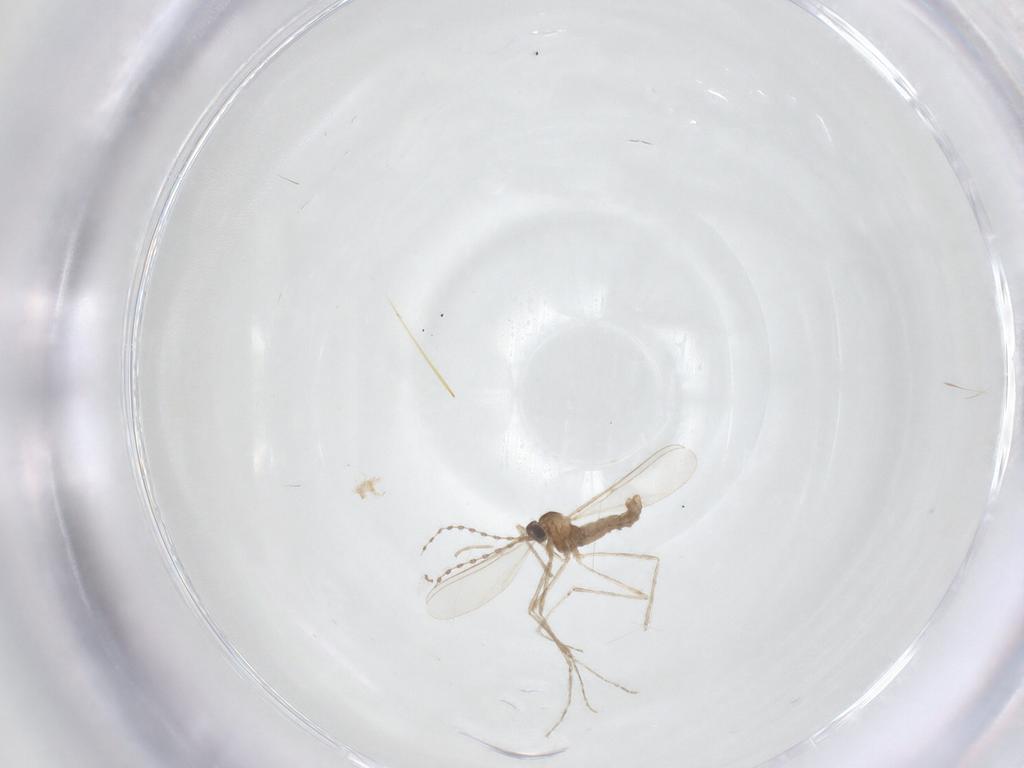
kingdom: Animalia
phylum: Arthropoda
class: Insecta
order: Diptera
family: Cecidomyiidae
